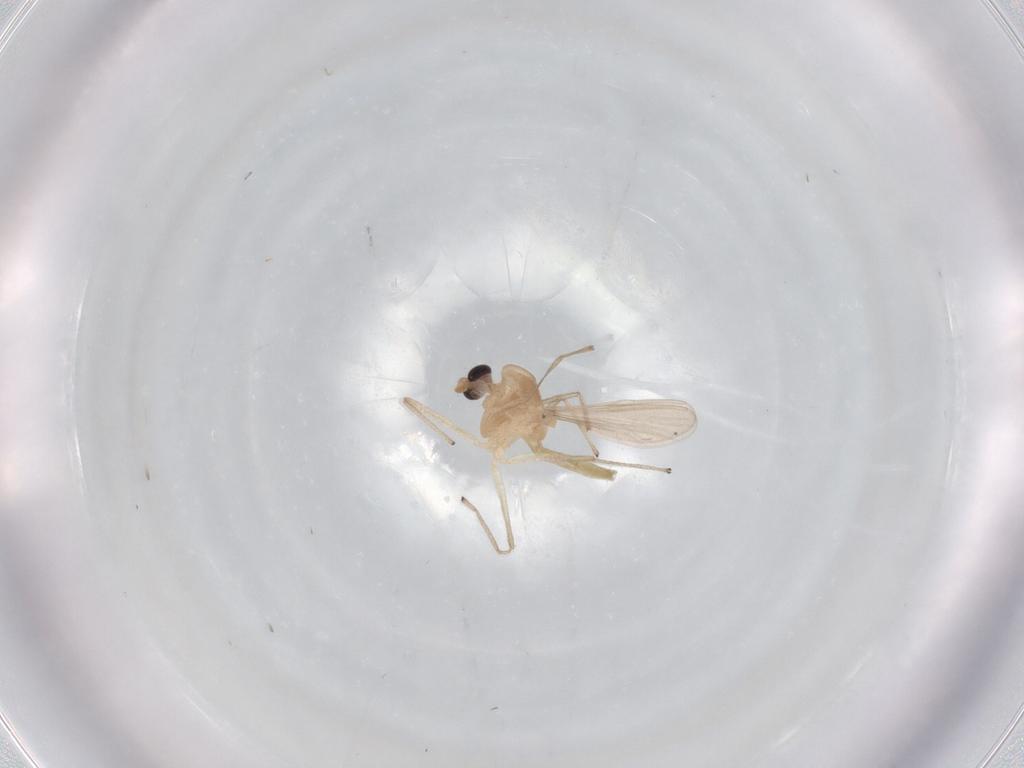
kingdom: Animalia
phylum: Arthropoda
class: Insecta
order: Diptera
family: Chironomidae
